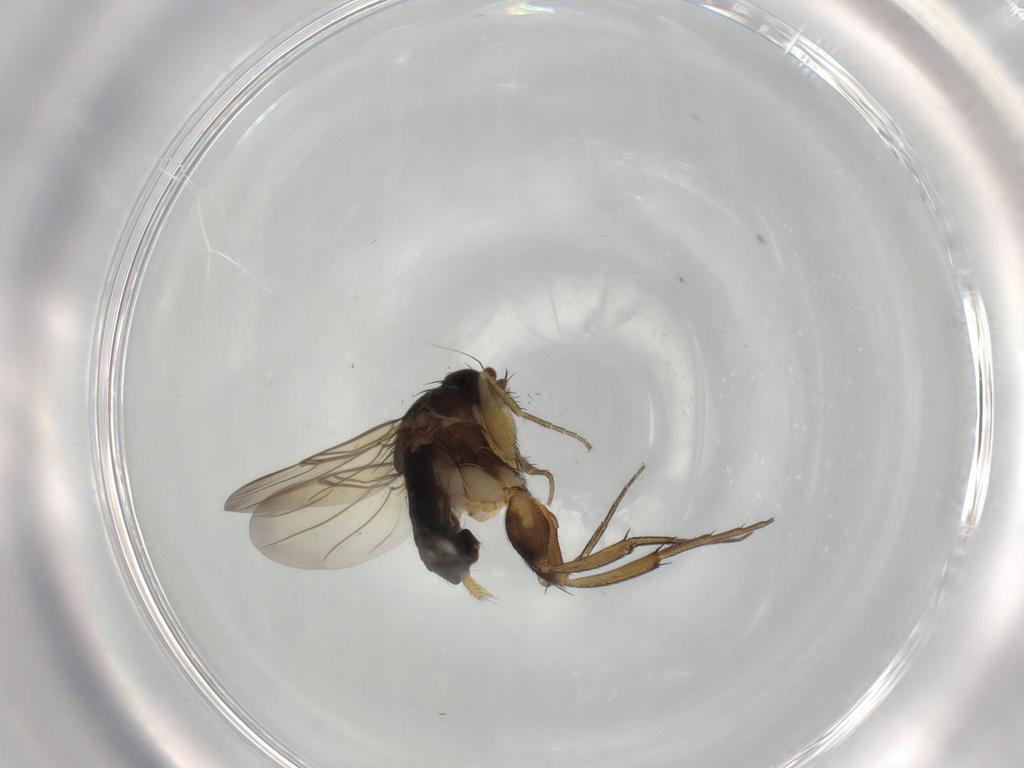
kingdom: Animalia
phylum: Arthropoda
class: Insecta
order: Diptera
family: Phoridae
